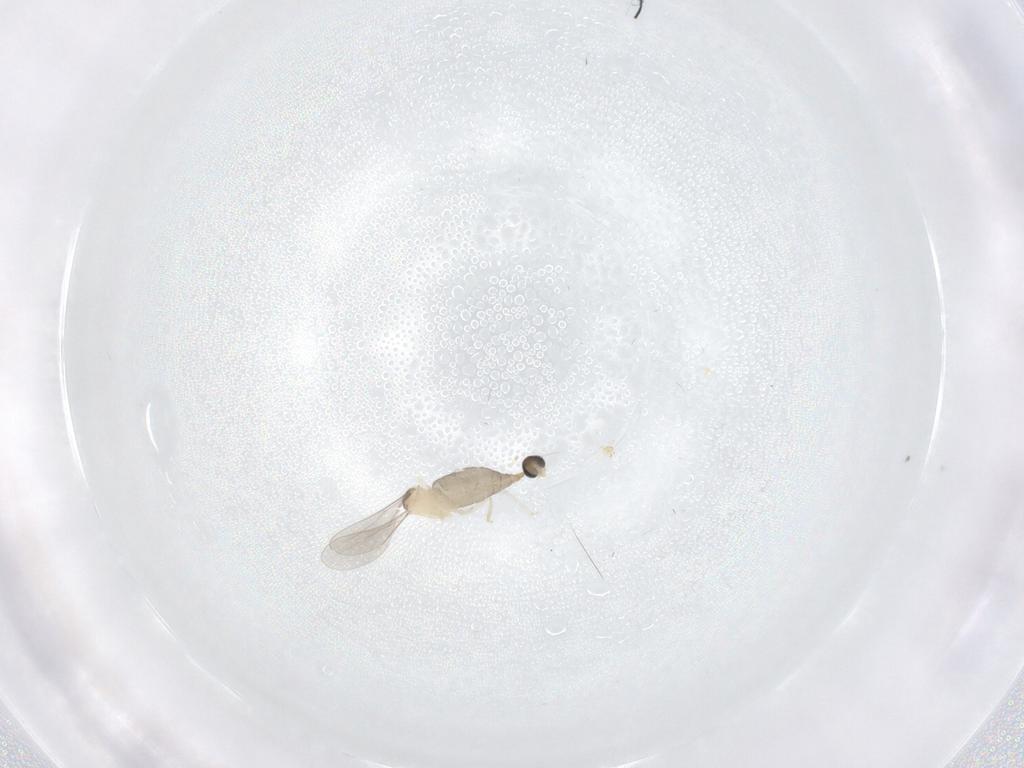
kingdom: Animalia
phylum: Arthropoda
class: Insecta
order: Diptera
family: Cecidomyiidae
